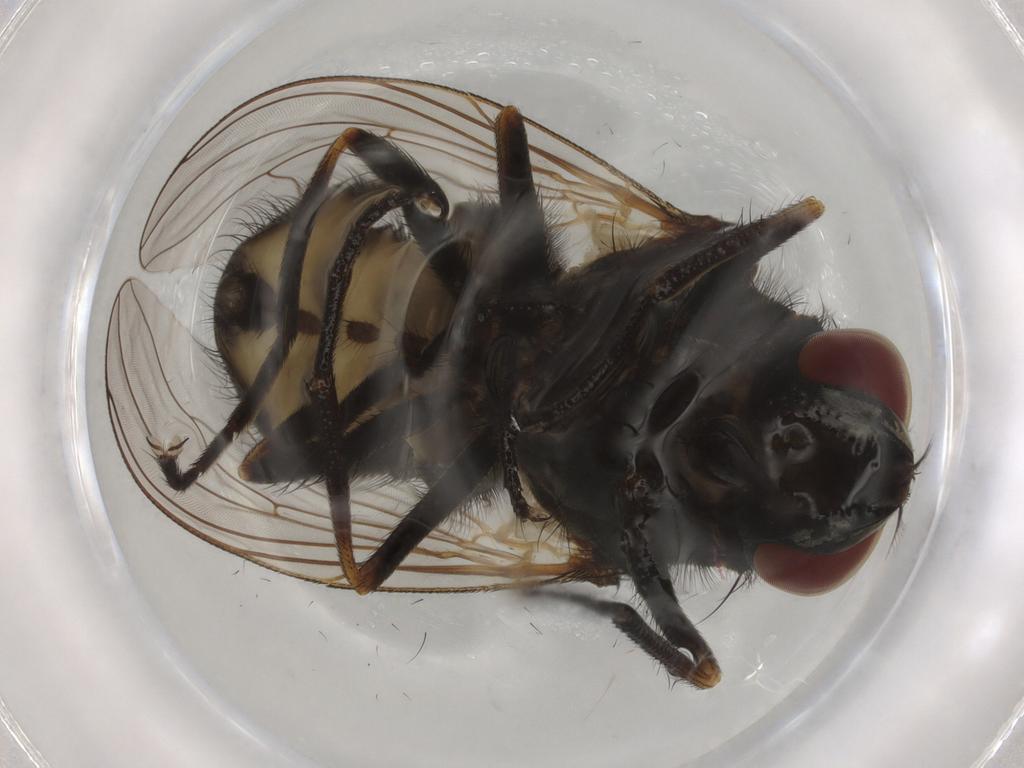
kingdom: Animalia
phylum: Arthropoda
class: Insecta
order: Diptera
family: Muscidae
